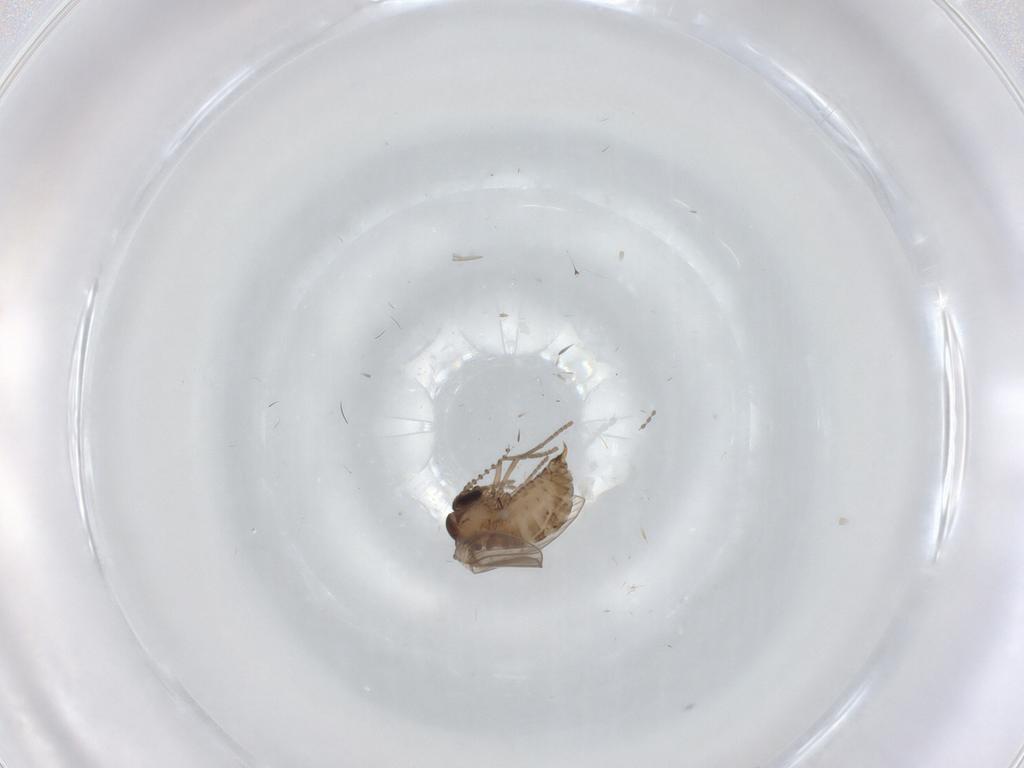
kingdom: Animalia
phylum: Arthropoda
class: Insecta
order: Diptera
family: Psychodidae
